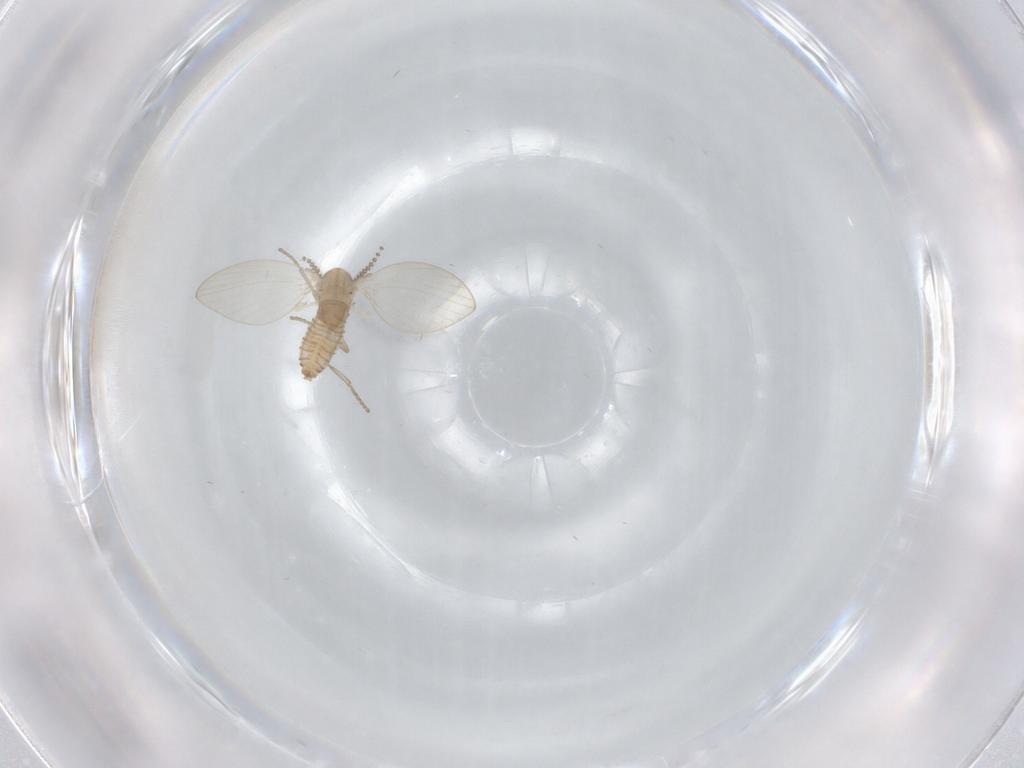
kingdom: Animalia
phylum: Arthropoda
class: Insecta
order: Diptera
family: Psychodidae
